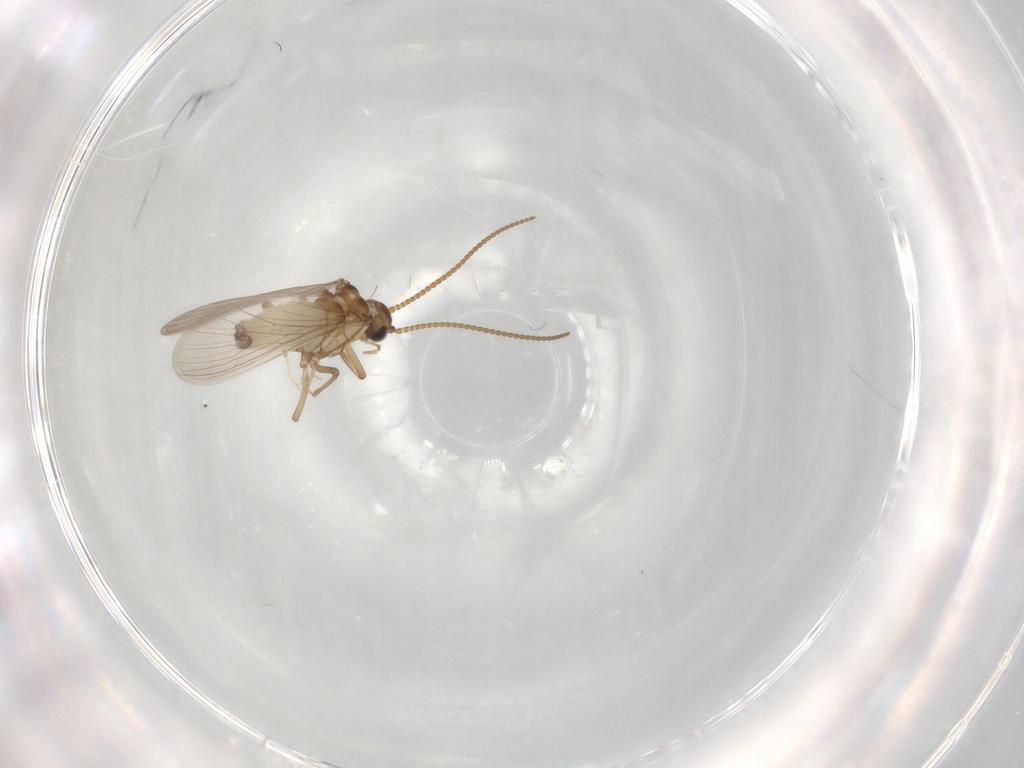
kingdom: Animalia
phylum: Arthropoda
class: Insecta
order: Neuroptera
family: Coniopterygidae
